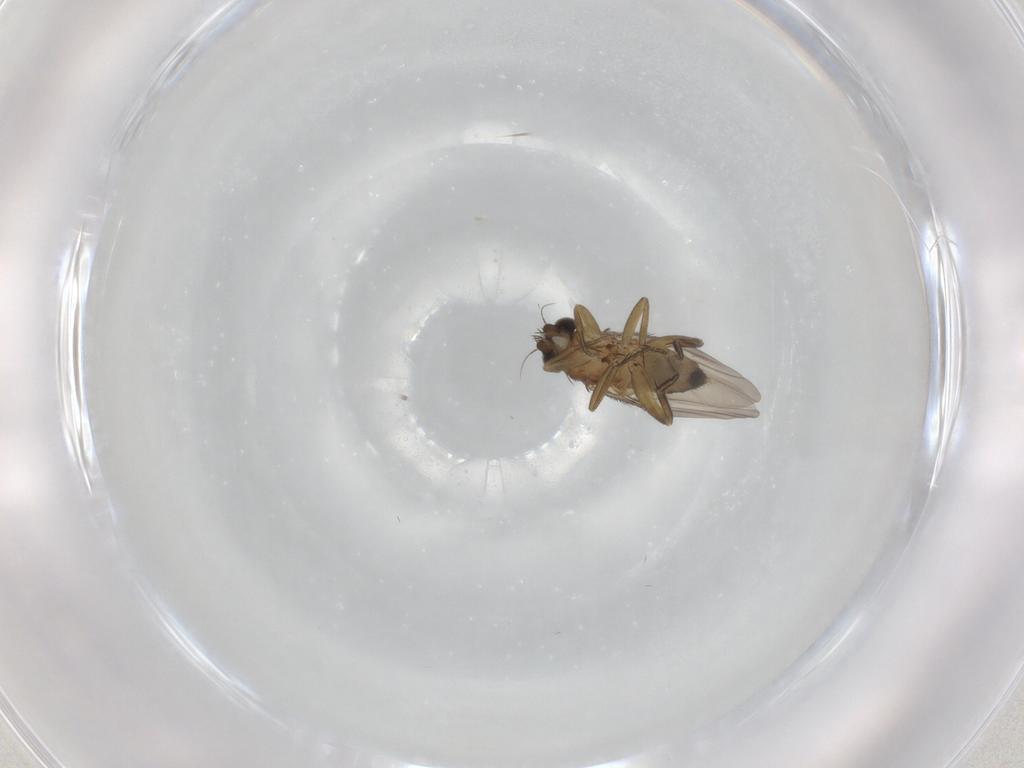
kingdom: Animalia
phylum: Arthropoda
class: Insecta
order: Diptera
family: Phoridae
